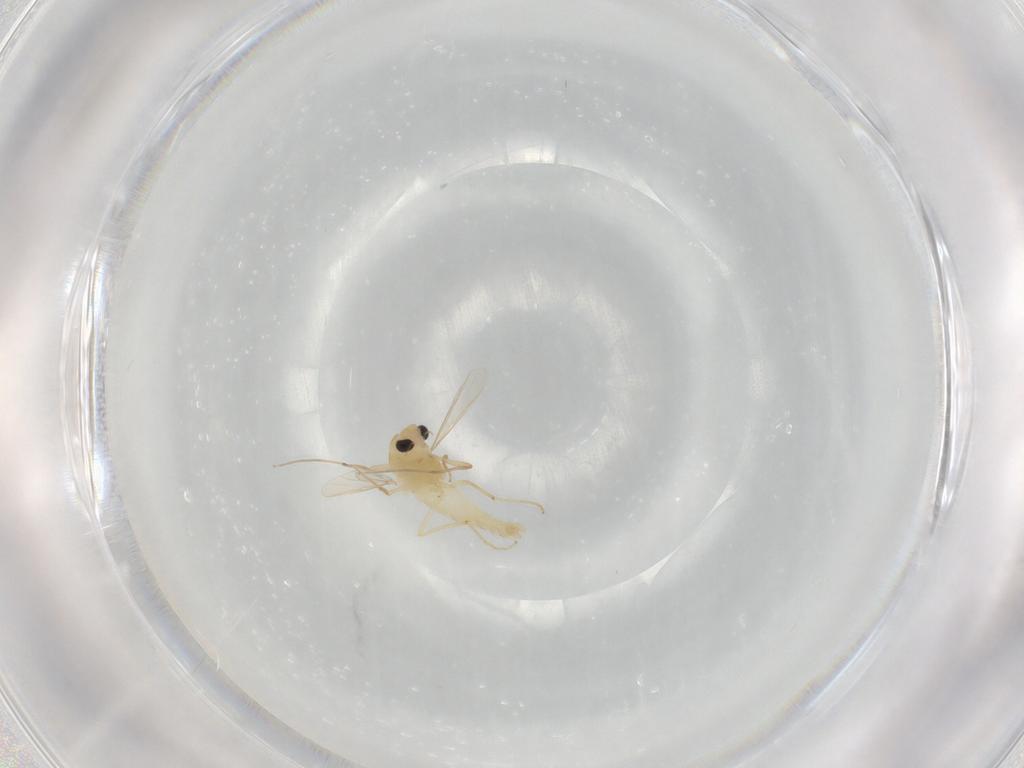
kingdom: Animalia
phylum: Arthropoda
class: Insecta
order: Diptera
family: Chironomidae
